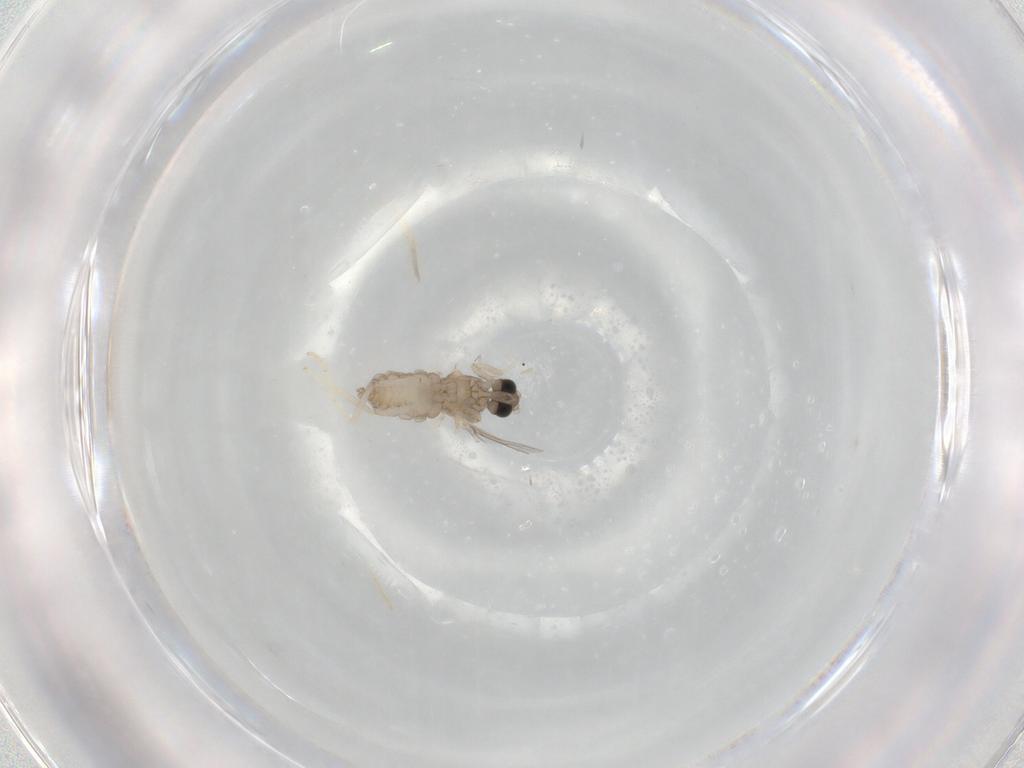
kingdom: Animalia
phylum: Arthropoda
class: Insecta
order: Diptera
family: Cecidomyiidae
